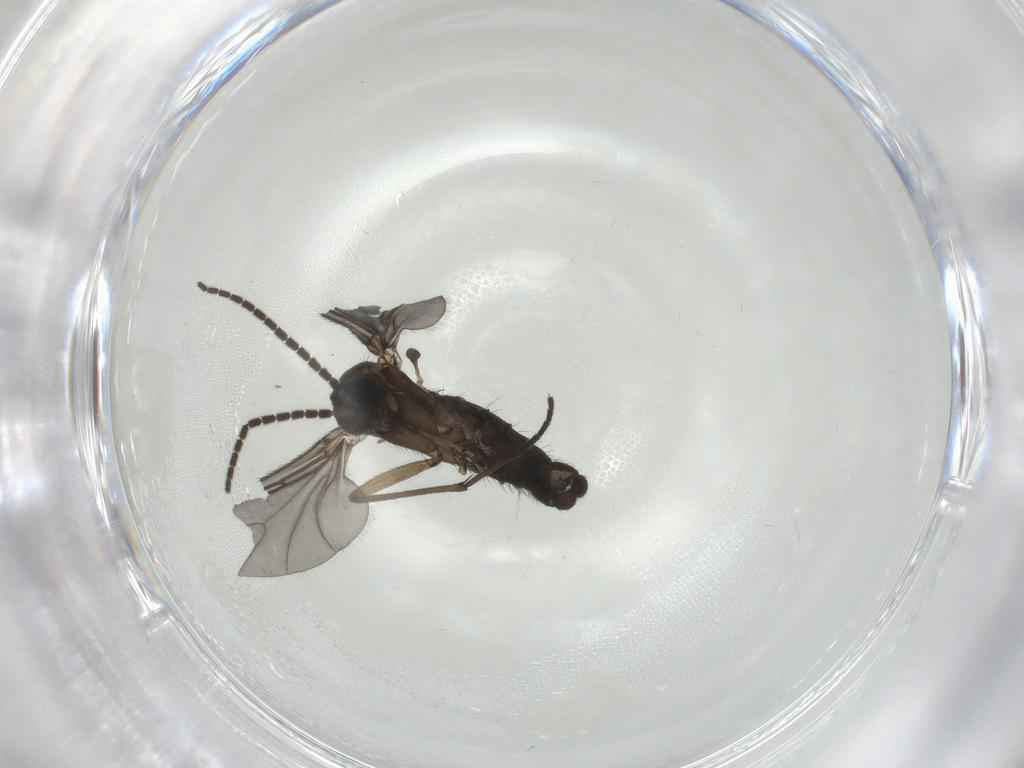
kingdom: Animalia
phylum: Arthropoda
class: Insecta
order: Diptera
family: Sciaridae
